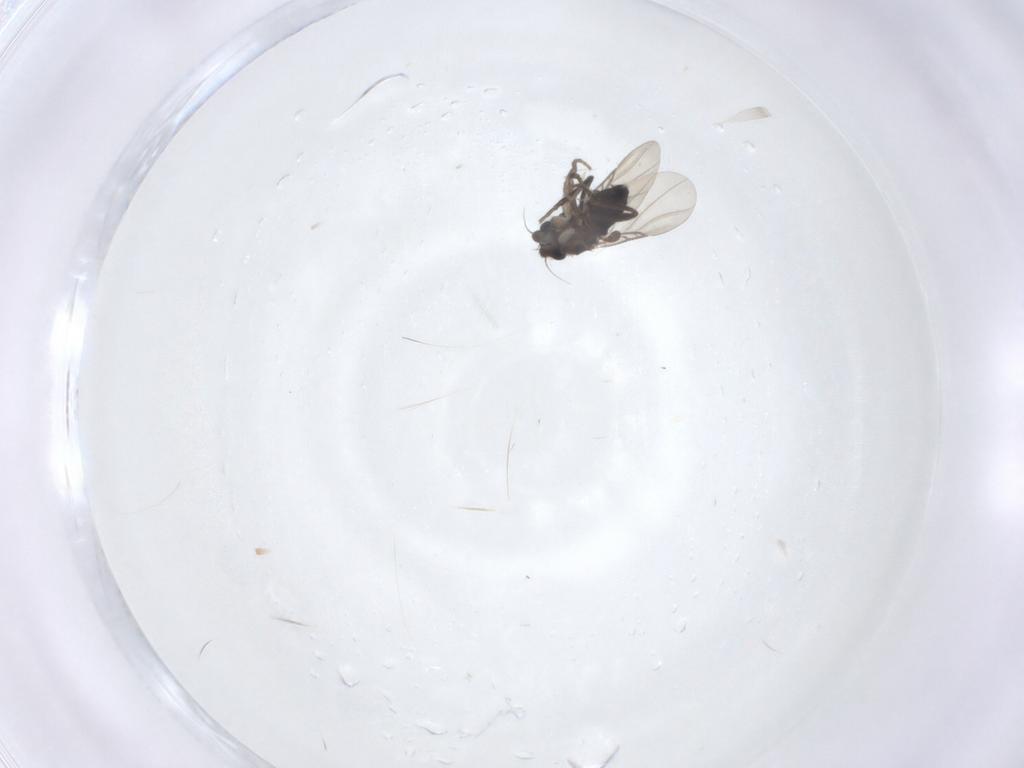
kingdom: Animalia
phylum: Arthropoda
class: Insecta
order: Diptera
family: Phoridae
